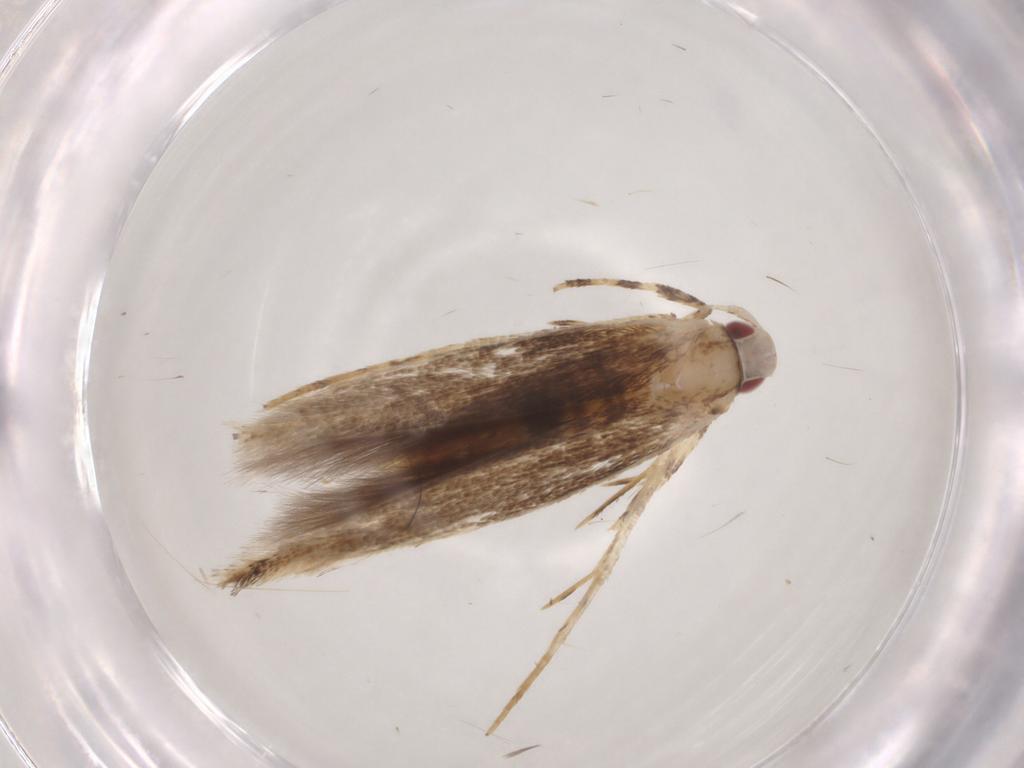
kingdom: Animalia
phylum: Arthropoda
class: Insecta
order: Lepidoptera
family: Cosmopterigidae
